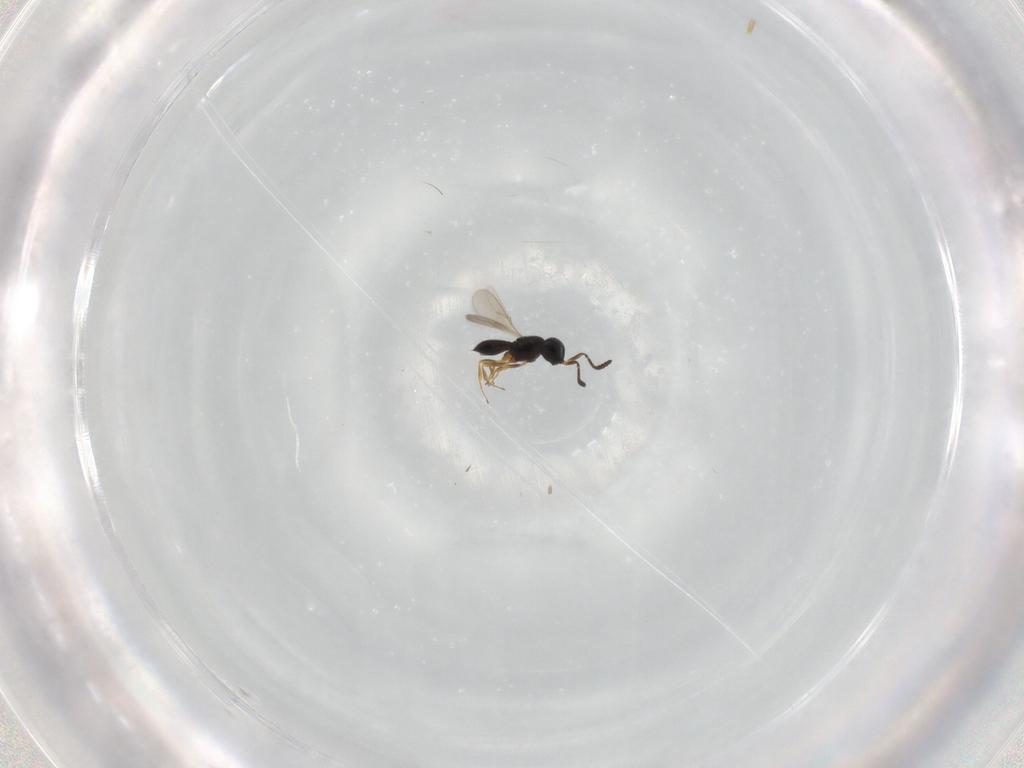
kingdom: Animalia
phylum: Arthropoda
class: Insecta
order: Hymenoptera
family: Scelionidae
